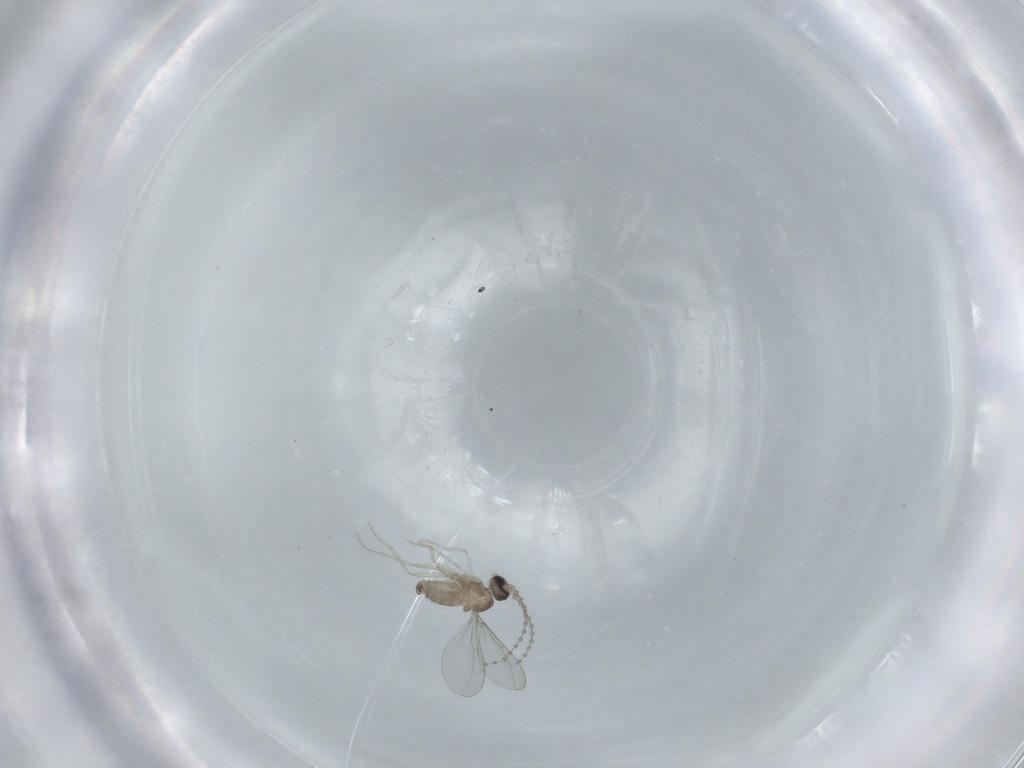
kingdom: Animalia
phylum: Arthropoda
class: Insecta
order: Diptera
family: Cecidomyiidae
